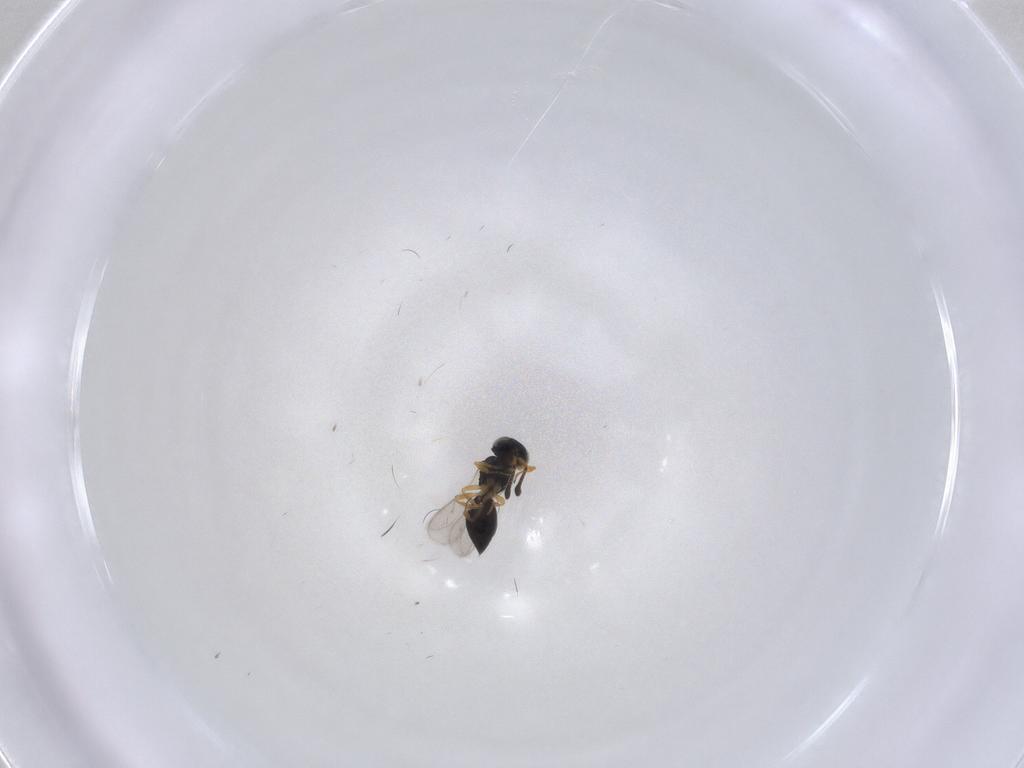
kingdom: Animalia
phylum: Arthropoda
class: Insecta
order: Hymenoptera
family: Scelionidae
